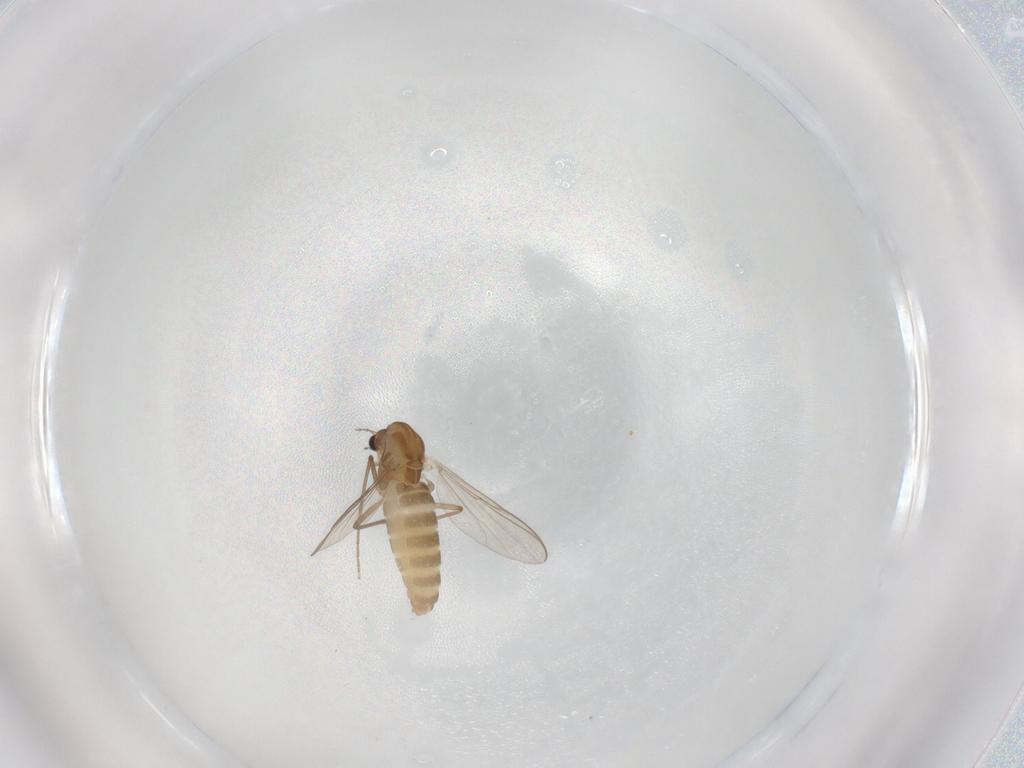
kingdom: Animalia
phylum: Arthropoda
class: Insecta
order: Diptera
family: Chironomidae
